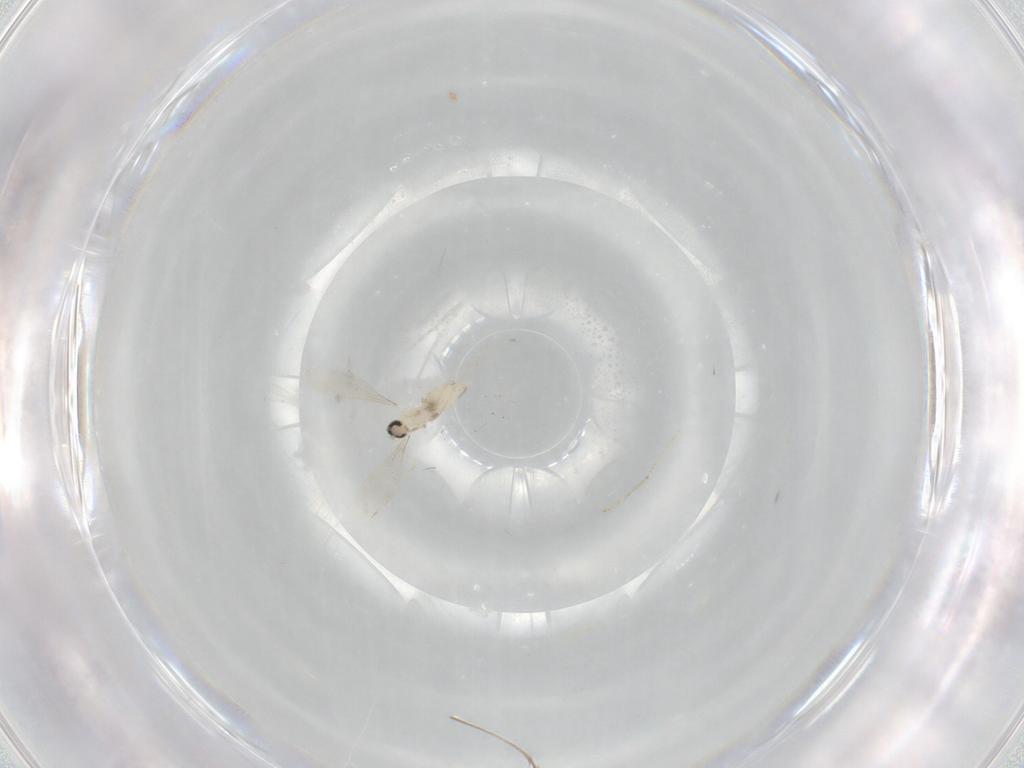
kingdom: Animalia
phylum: Arthropoda
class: Insecta
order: Diptera
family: Cecidomyiidae
